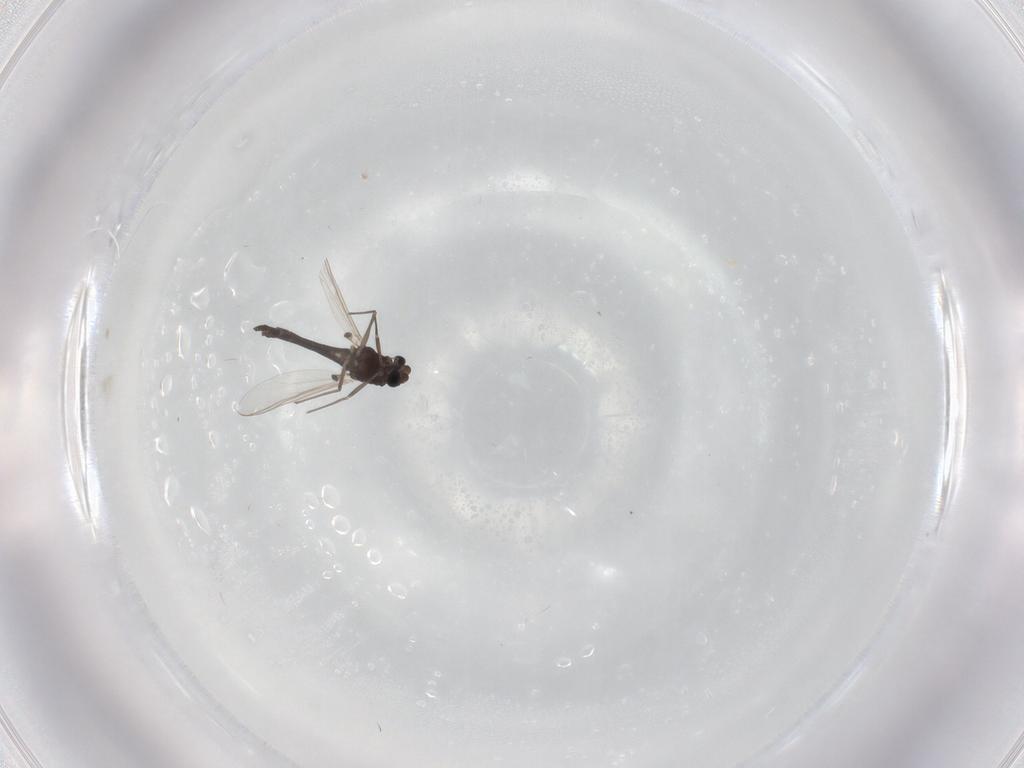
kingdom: Animalia
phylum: Arthropoda
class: Insecta
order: Diptera
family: Chironomidae
